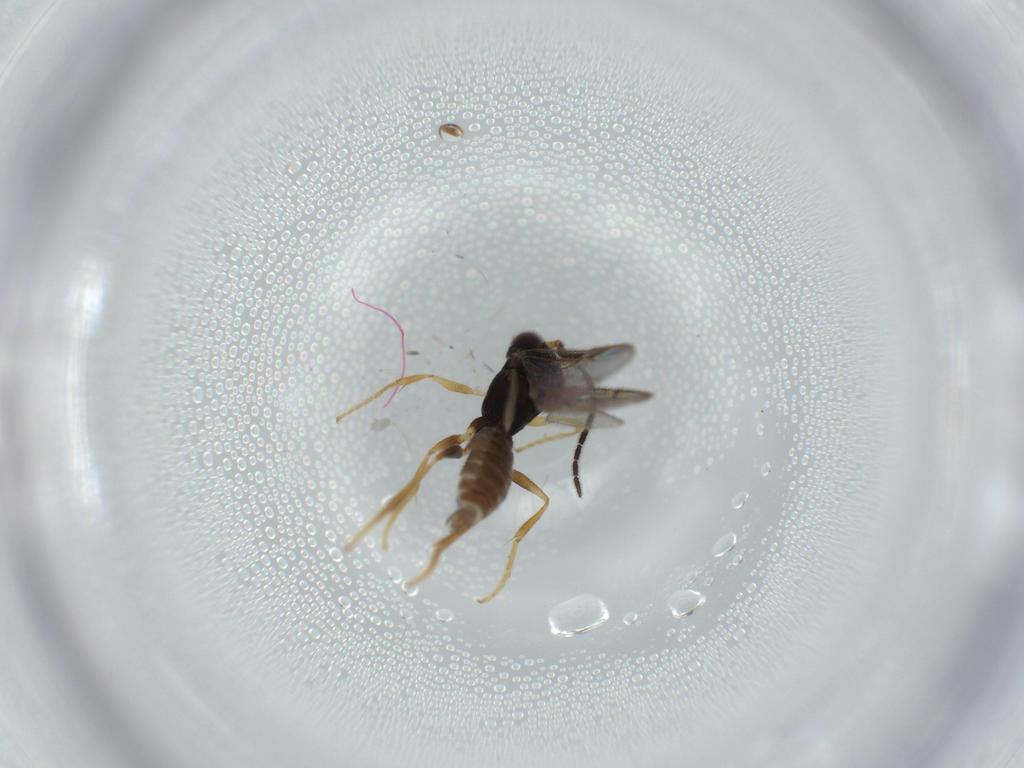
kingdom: Animalia
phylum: Arthropoda
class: Insecta
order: Hymenoptera
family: Dryinidae
